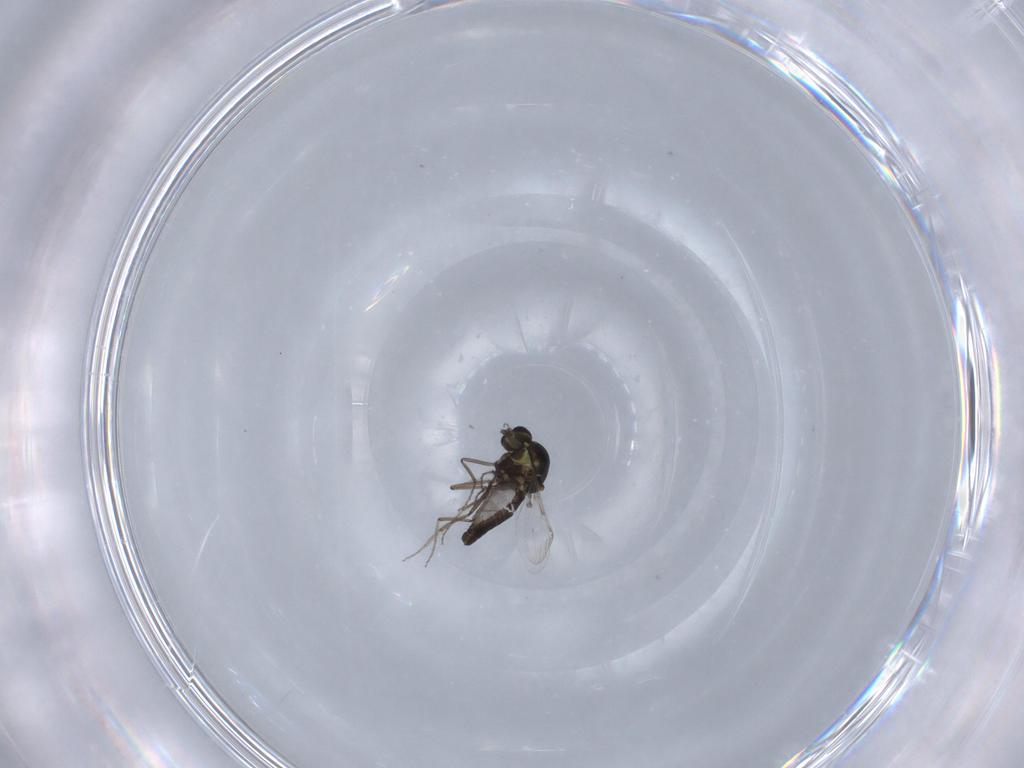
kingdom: Animalia
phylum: Arthropoda
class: Insecta
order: Diptera
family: Ceratopogonidae
